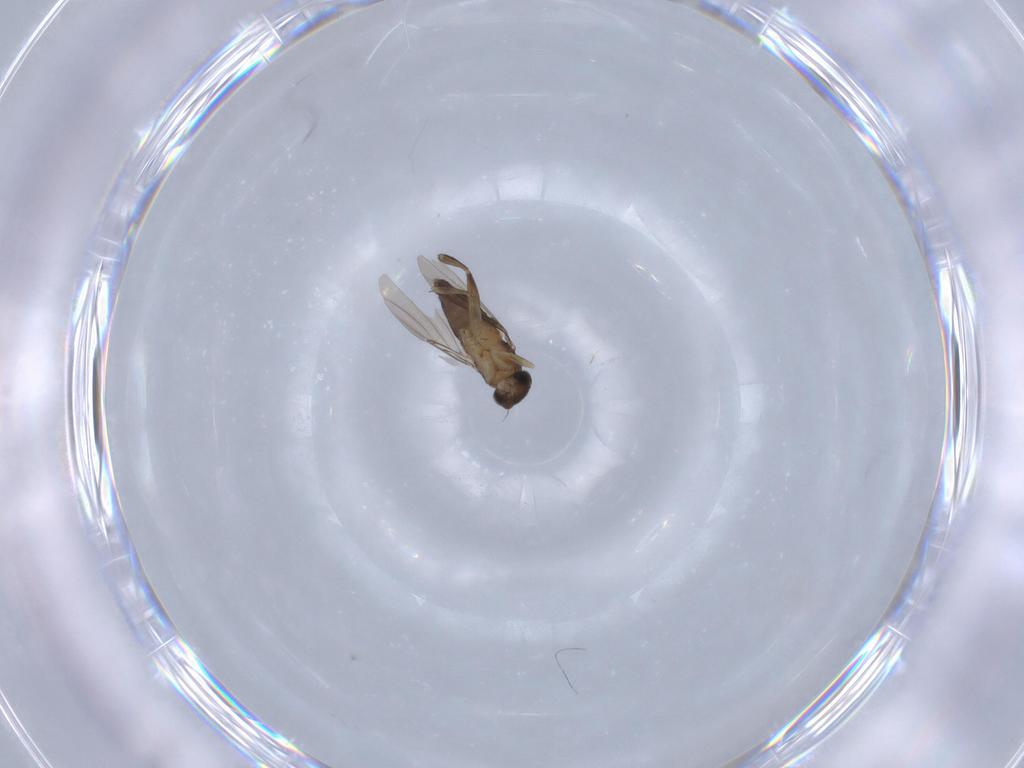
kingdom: Animalia
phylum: Arthropoda
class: Insecta
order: Diptera
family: Phoridae
